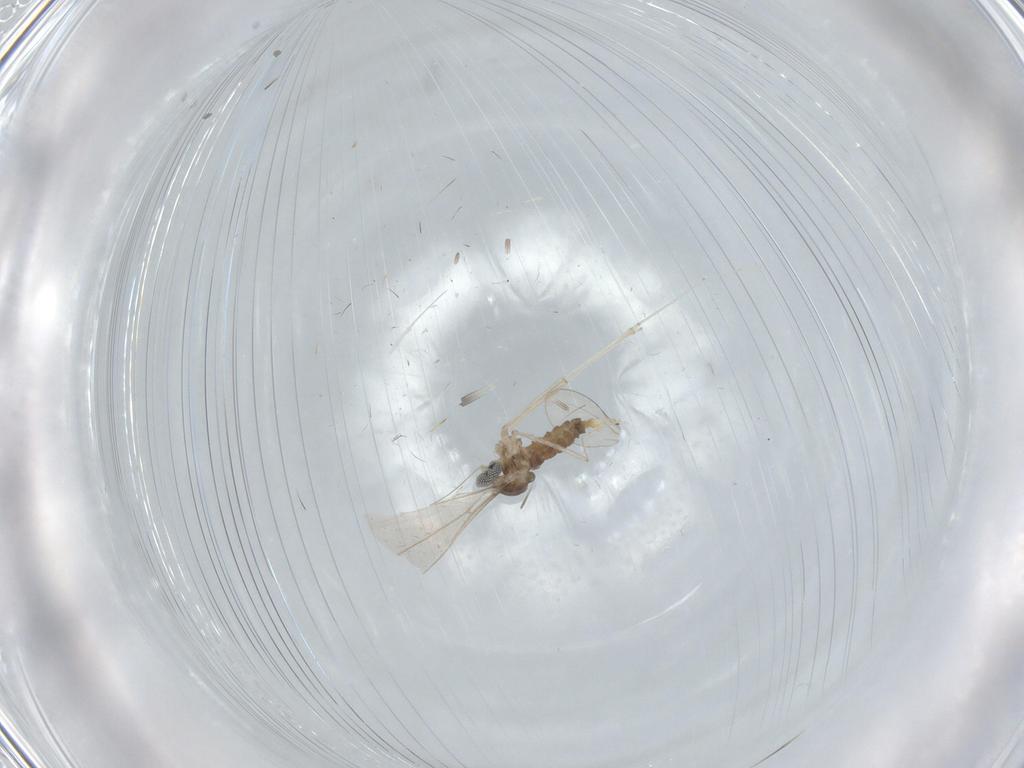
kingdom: Animalia
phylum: Arthropoda
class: Insecta
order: Diptera
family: Cecidomyiidae
